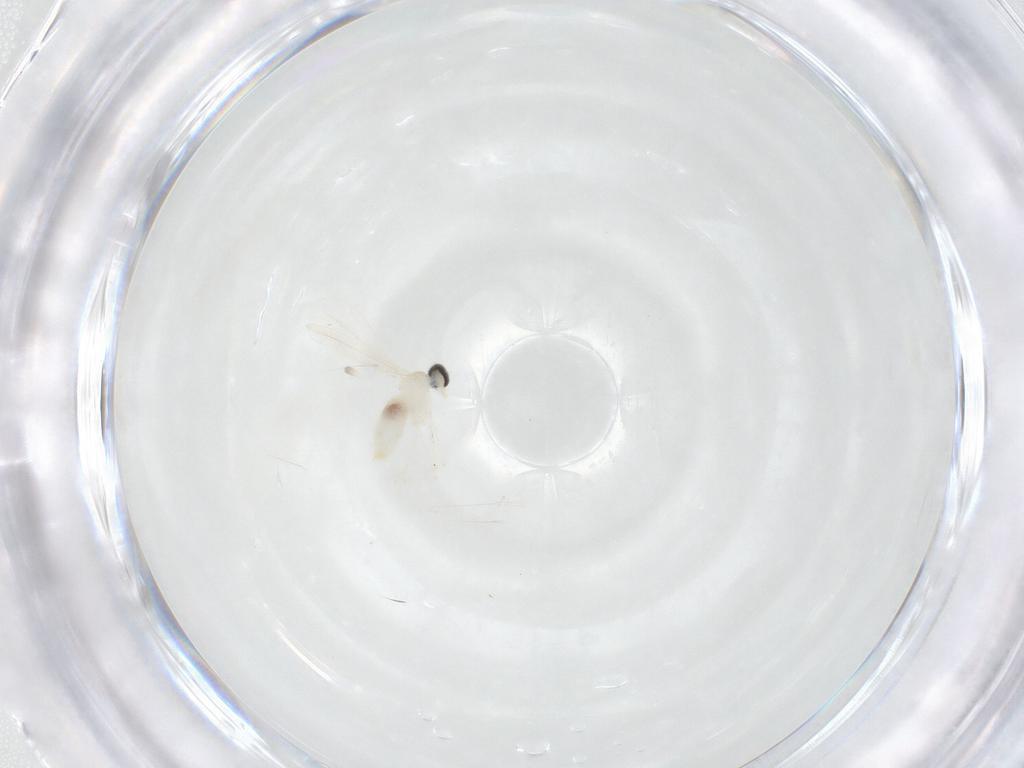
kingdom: Animalia
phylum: Arthropoda
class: Insecta
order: Diptera
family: Cecidomyiidae
